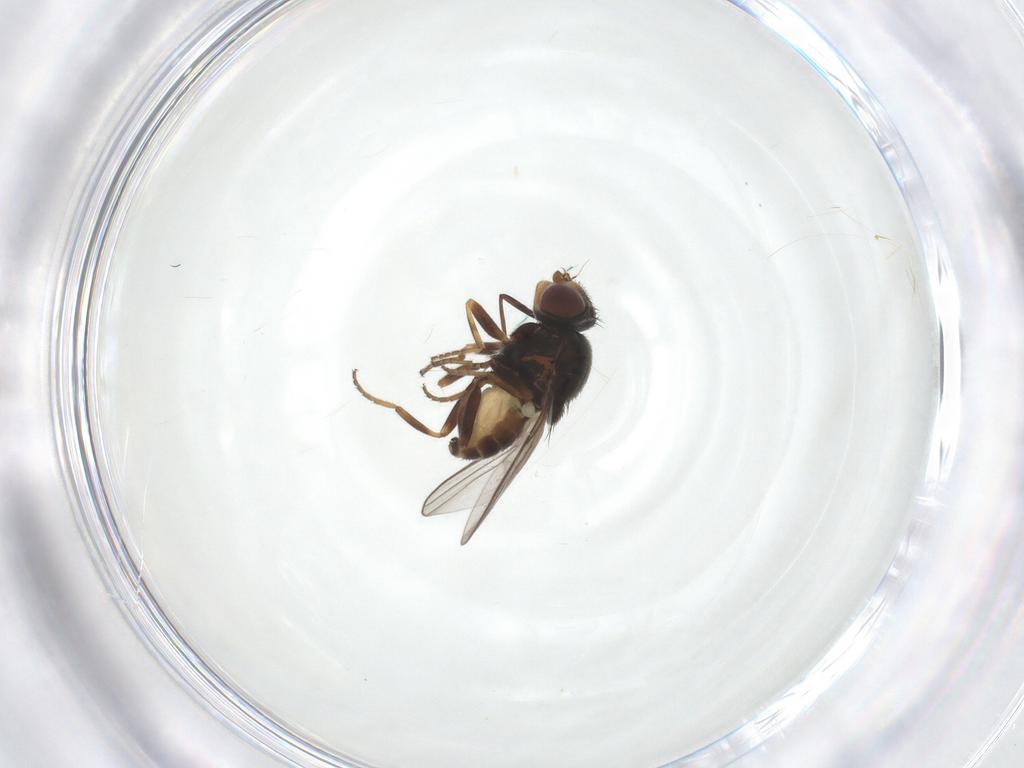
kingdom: Animalia
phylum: Arthropoda
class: Insecta
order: Diptera
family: Chloropidae
